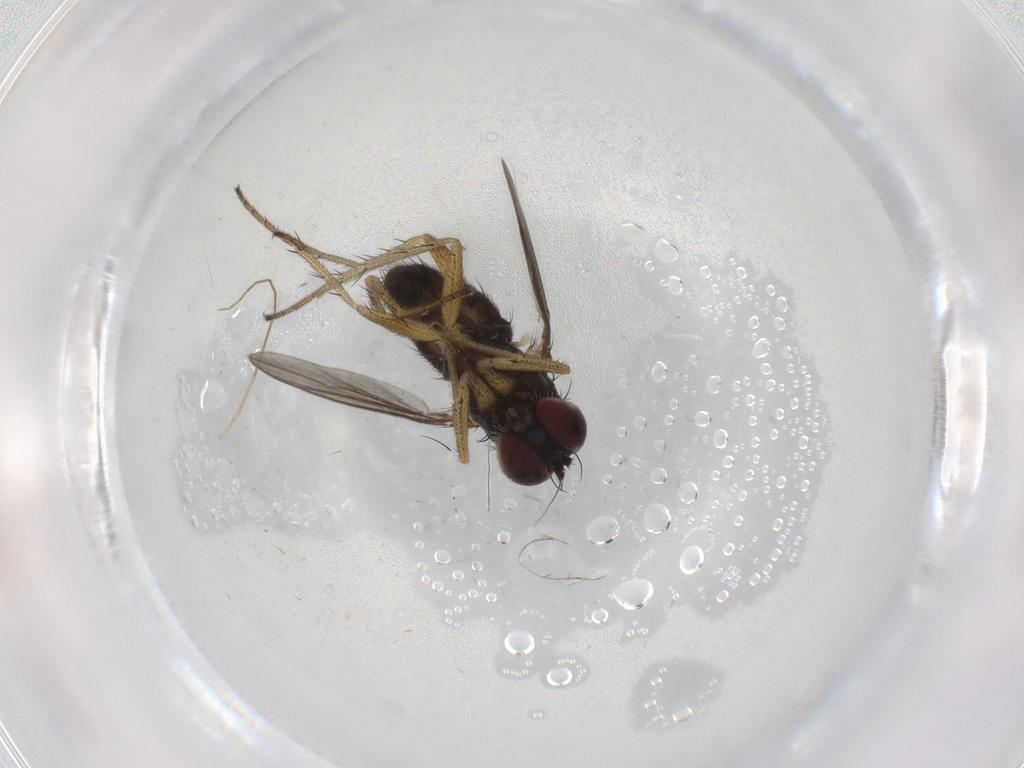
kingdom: Animalia
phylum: Arthropoda
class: Insecta
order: Diptera
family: Dolichopodidae
